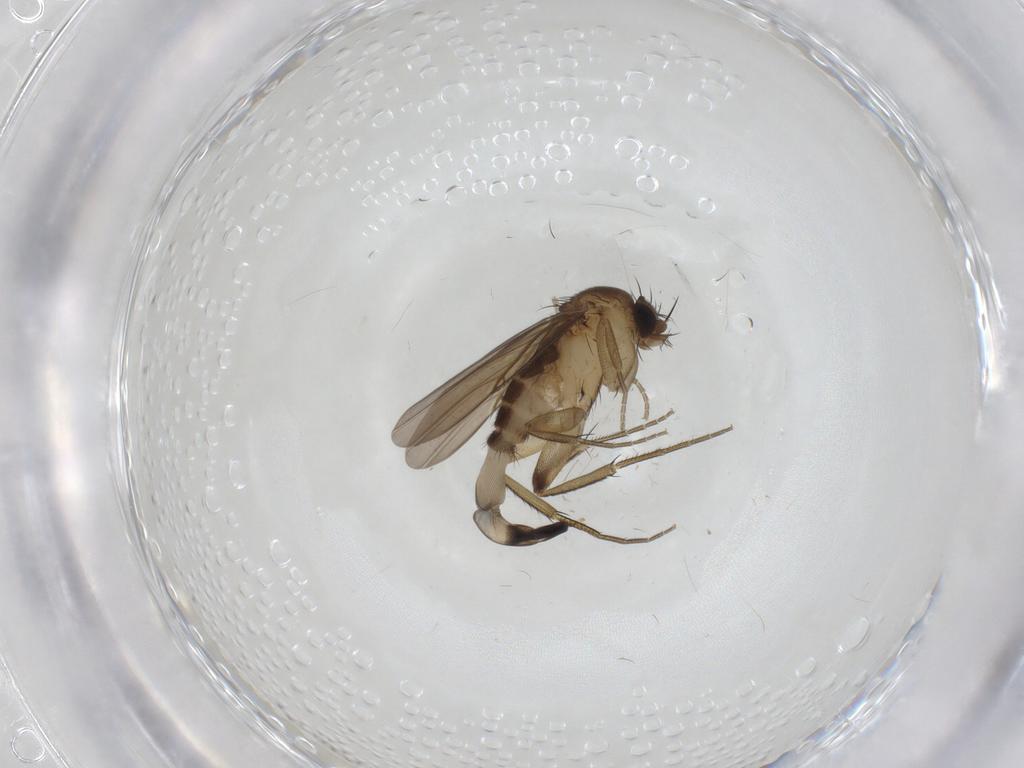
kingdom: Animalia
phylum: Arthropoda
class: Insecta
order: Diptera
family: Phoridae
